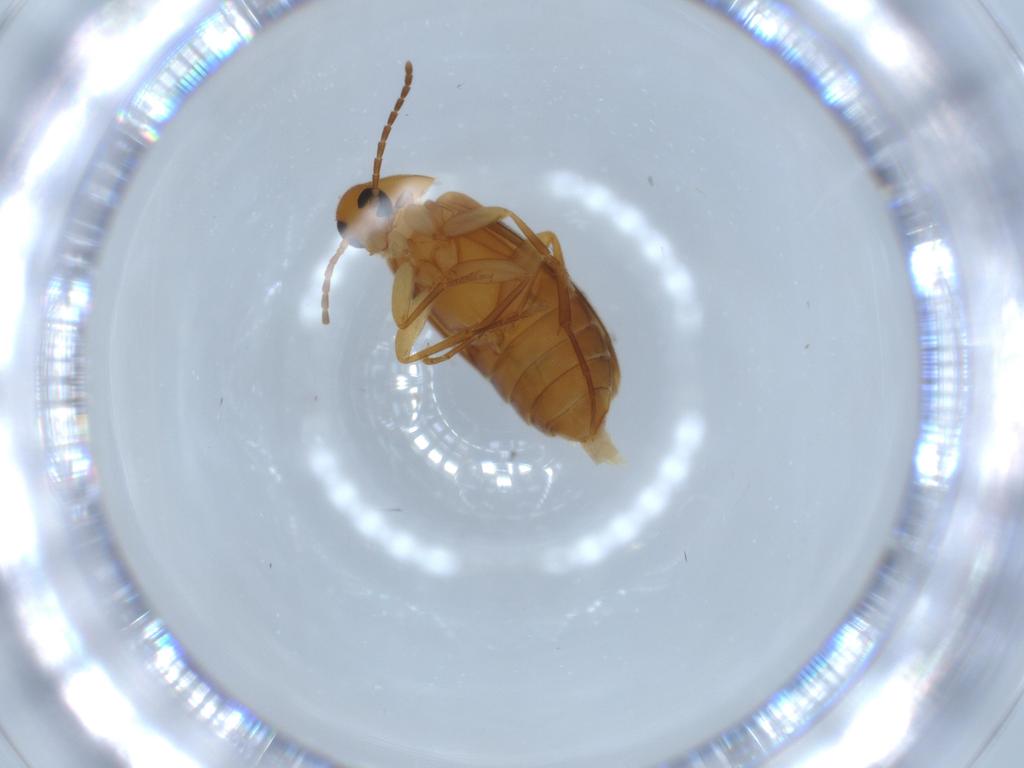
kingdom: Animalia
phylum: Arthropoda
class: Insecta
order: Coleoptera
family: Scraptiidae
